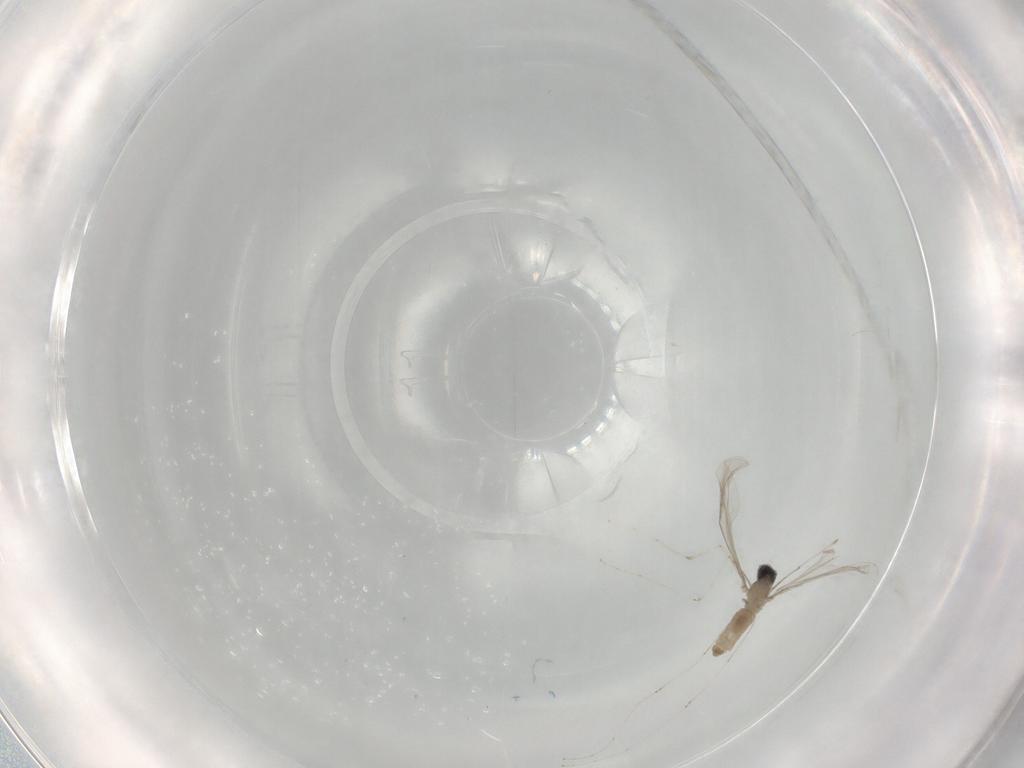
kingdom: Animalia
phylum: Arthropoda
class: Insecta
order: Diptera
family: Cecidomyiidae
